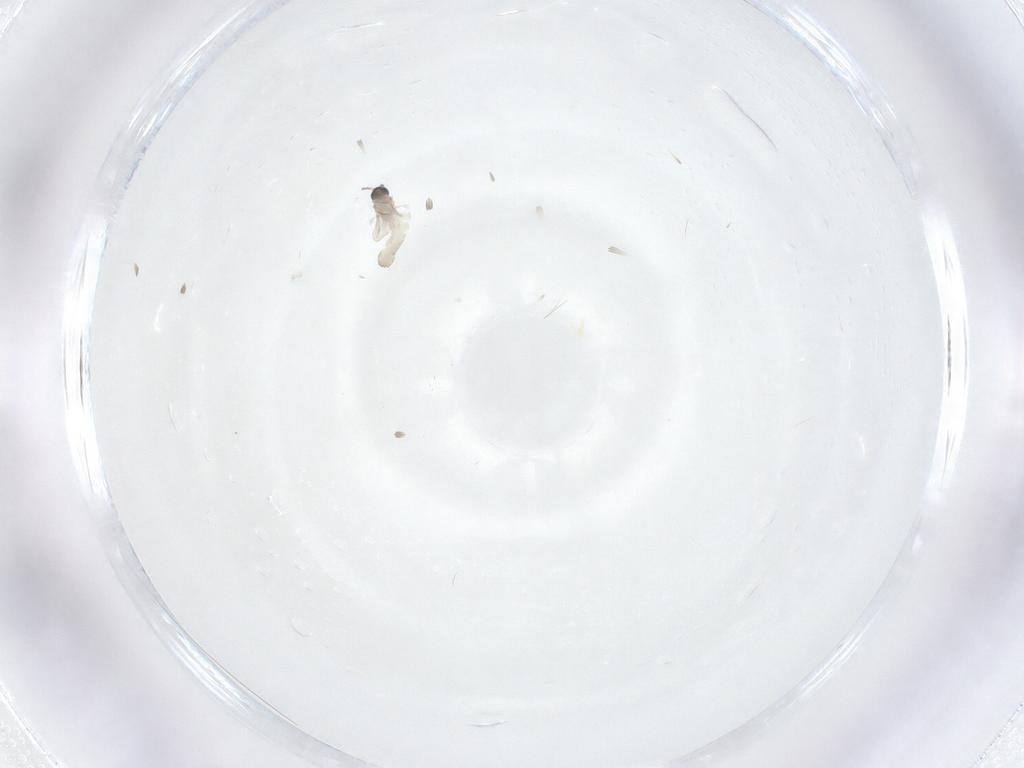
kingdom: Animalia
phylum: Arthropoda
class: Insecta
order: Diptera
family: Cecidomyiidae
